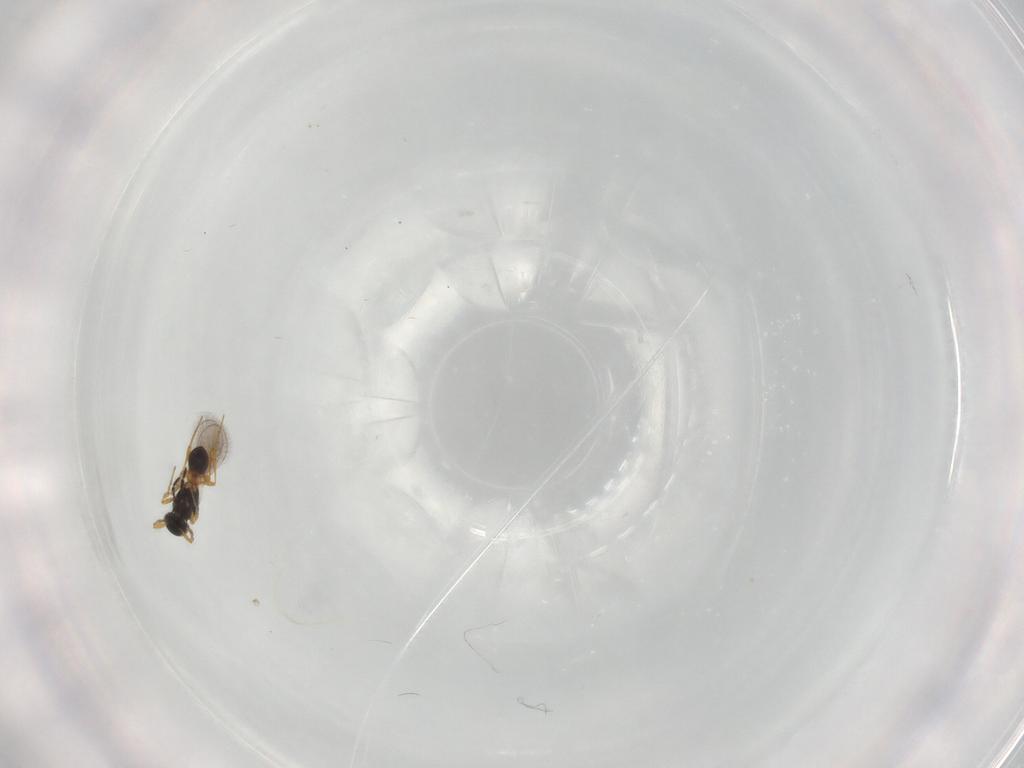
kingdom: Animalia
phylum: Arthropoda
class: Insecta
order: Hymenoptera
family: Platygastridae
